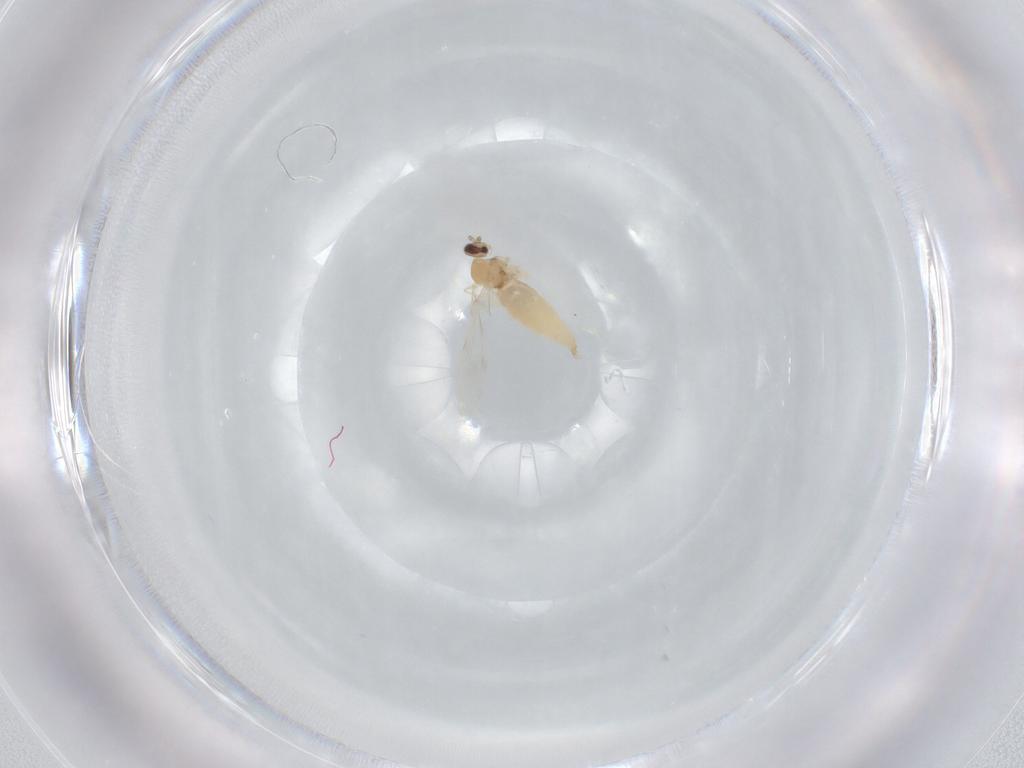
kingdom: Animalia
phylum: Arthropoda
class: Insecta
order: Diptera
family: Cecidomyiidae
